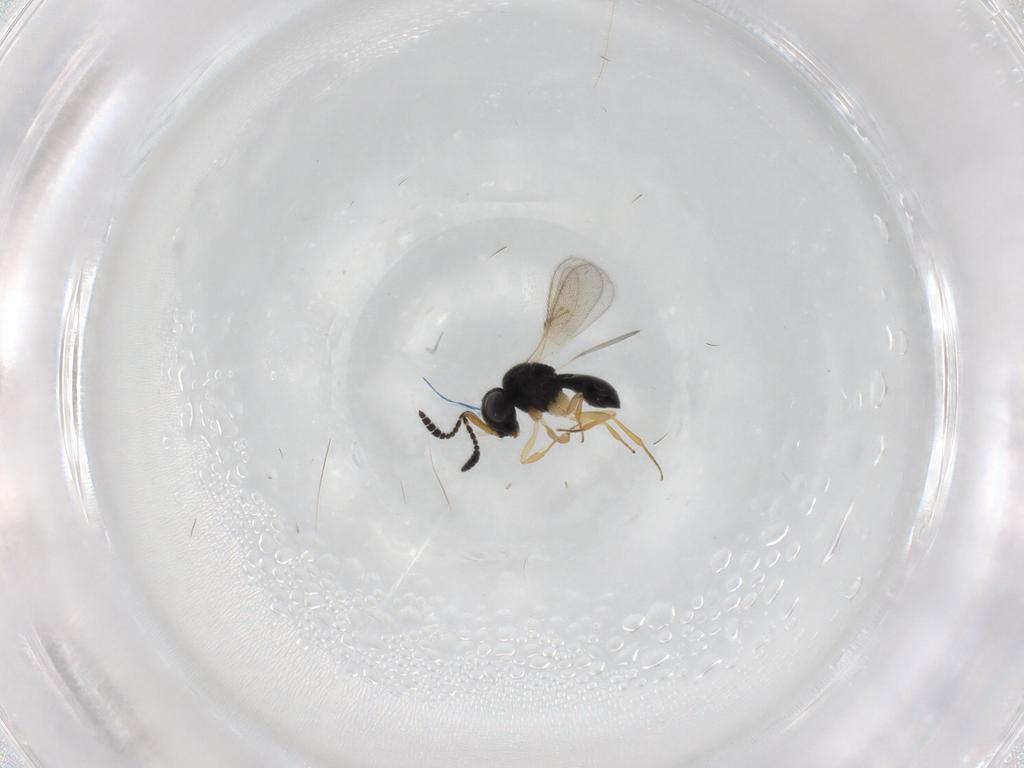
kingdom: Animalia
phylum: Arthropoda
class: Insecta
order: Hymenoptera
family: Scelionidae
